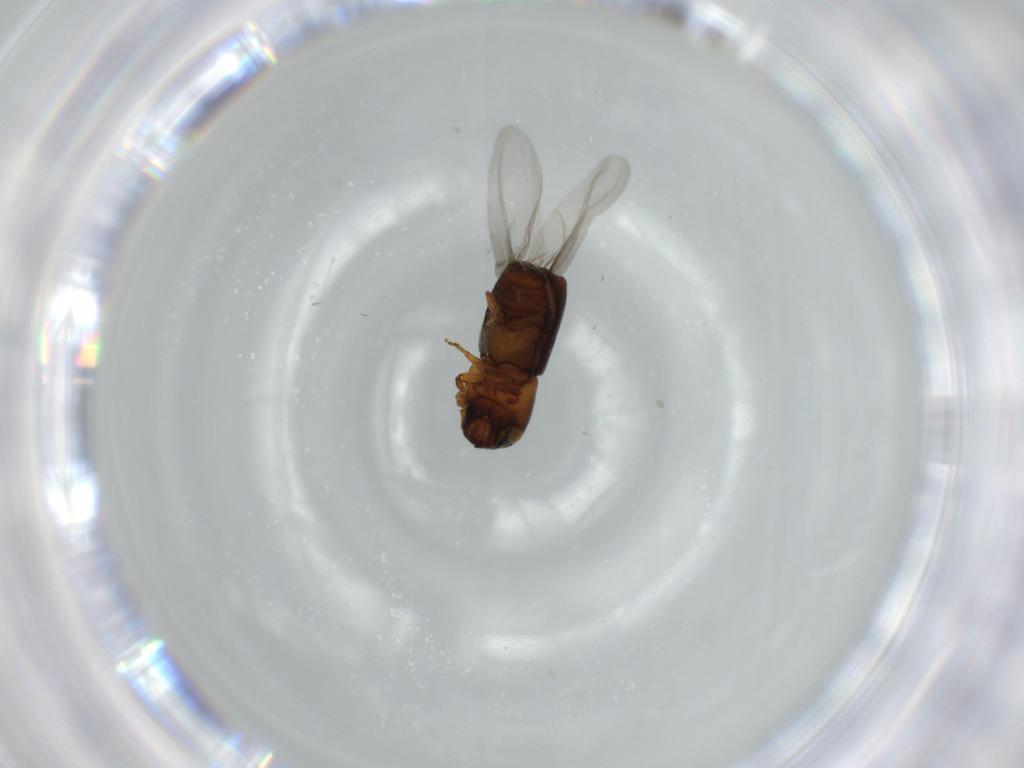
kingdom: Animalia
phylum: Arthropoda
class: Insecta
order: Coleoptera
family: Curculionidae
